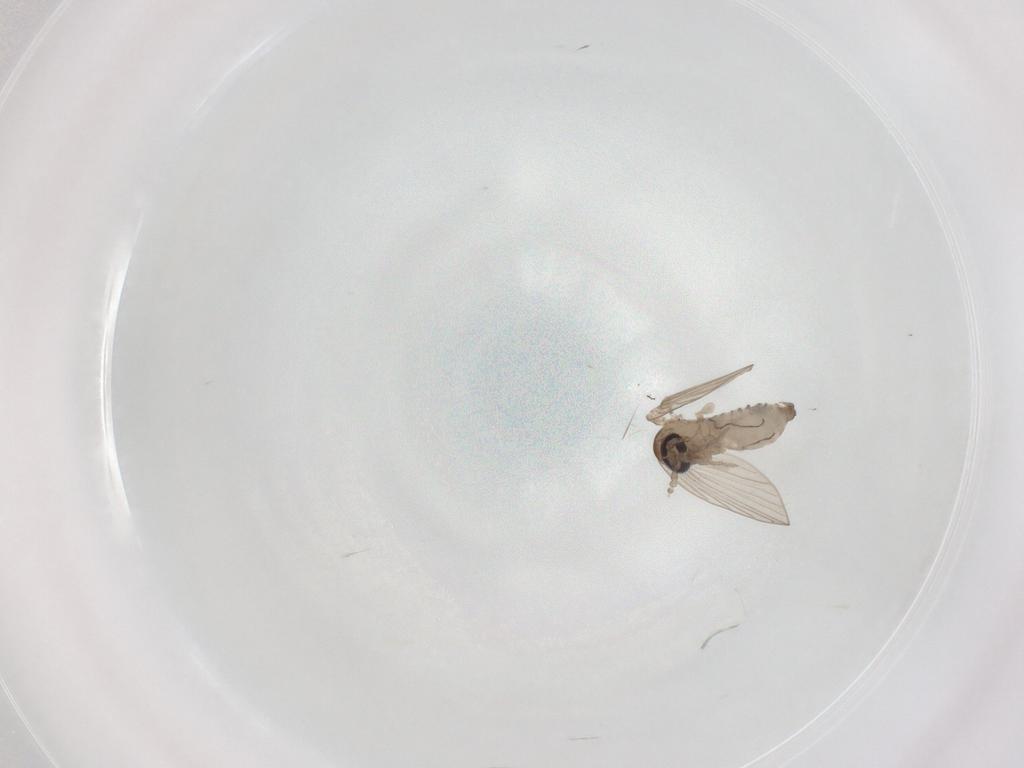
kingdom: Animalia
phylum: Arthropoda
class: Insecta
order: Diptera
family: Psychodidae
